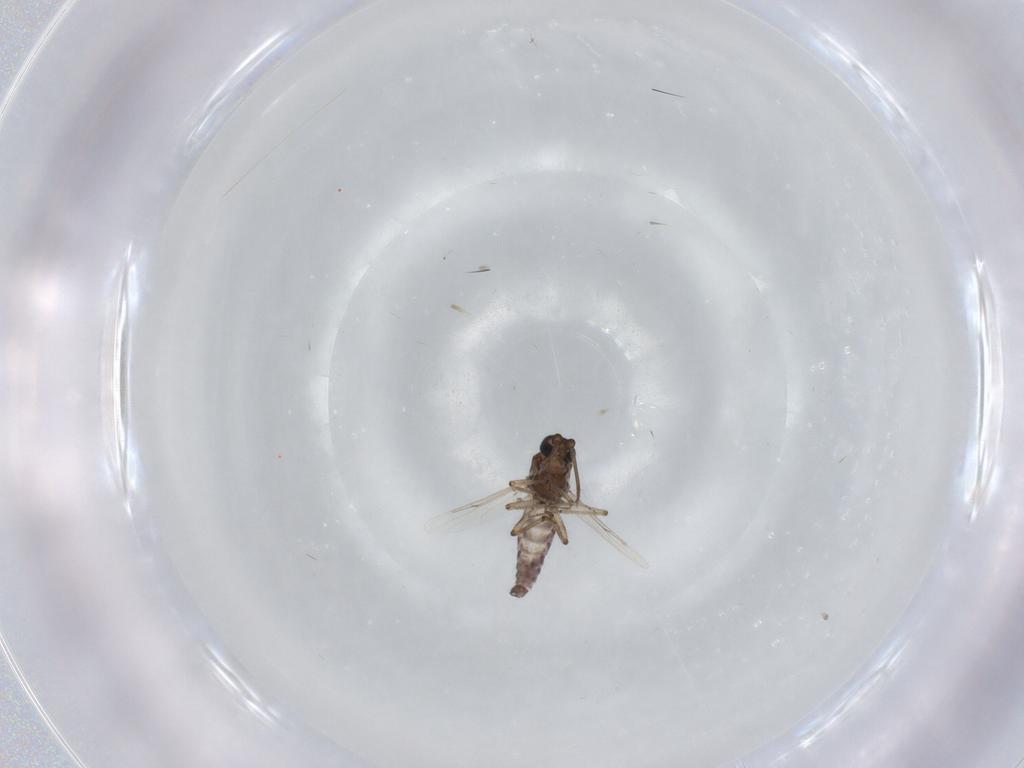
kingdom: Animalia
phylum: Arthropoda
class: Insecta
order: Diptera
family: Ceratopogonidae
